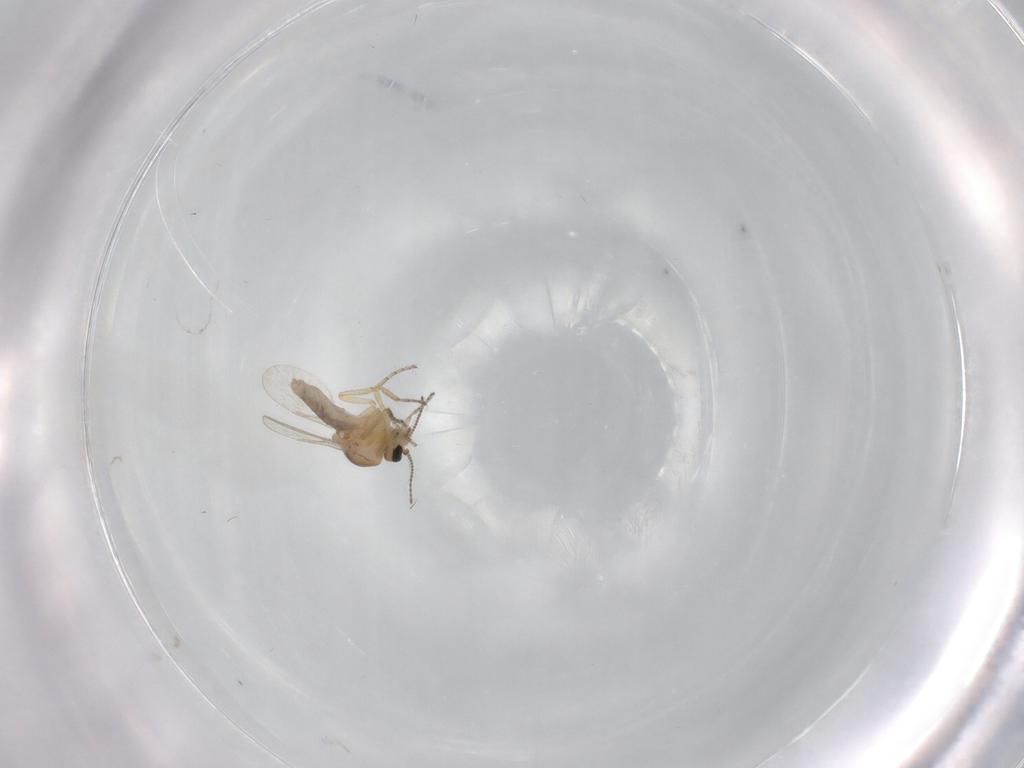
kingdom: Animalia
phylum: Arthropoda
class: Insecta
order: Diptera
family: Ceratopogonidae
